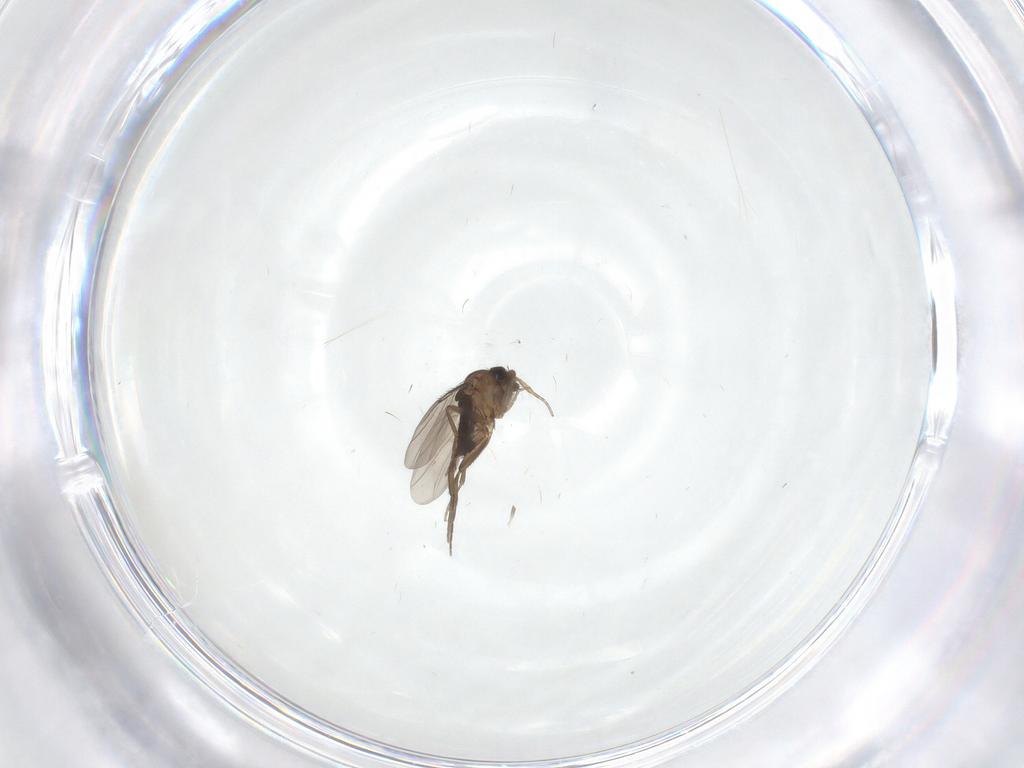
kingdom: Animalia
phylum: Arthropoda
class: Insecta
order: Diptera
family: Phoridae
